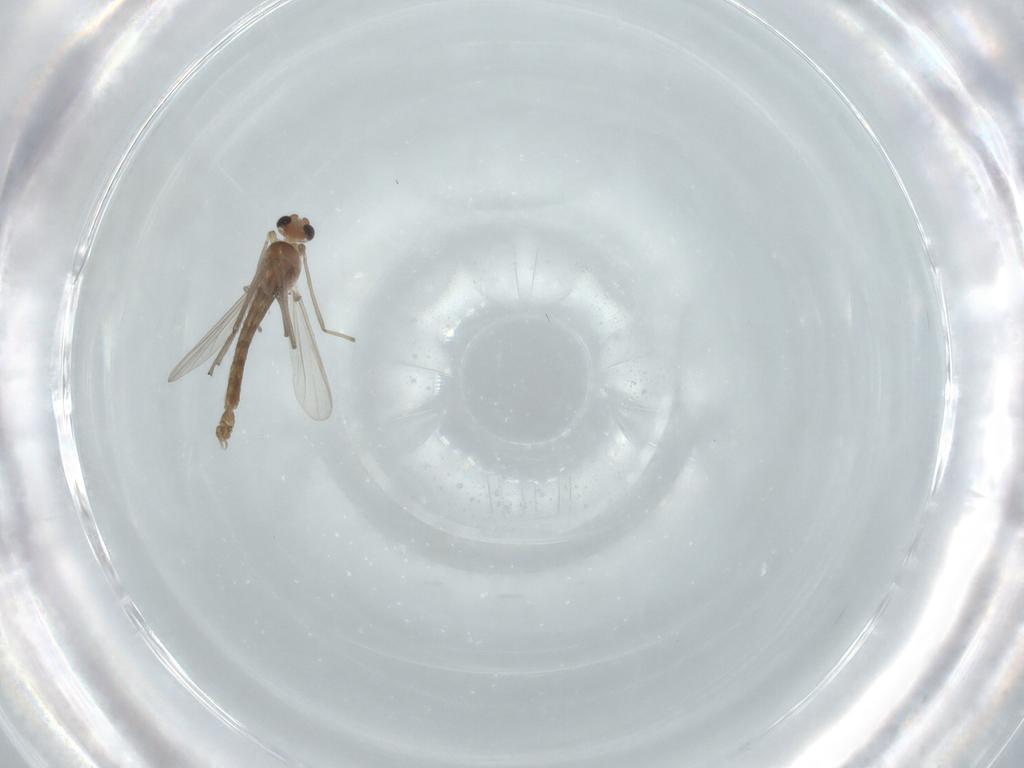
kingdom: Animalia
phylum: Arthropoda
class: Insecta
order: Diptera
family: Chironomidae
